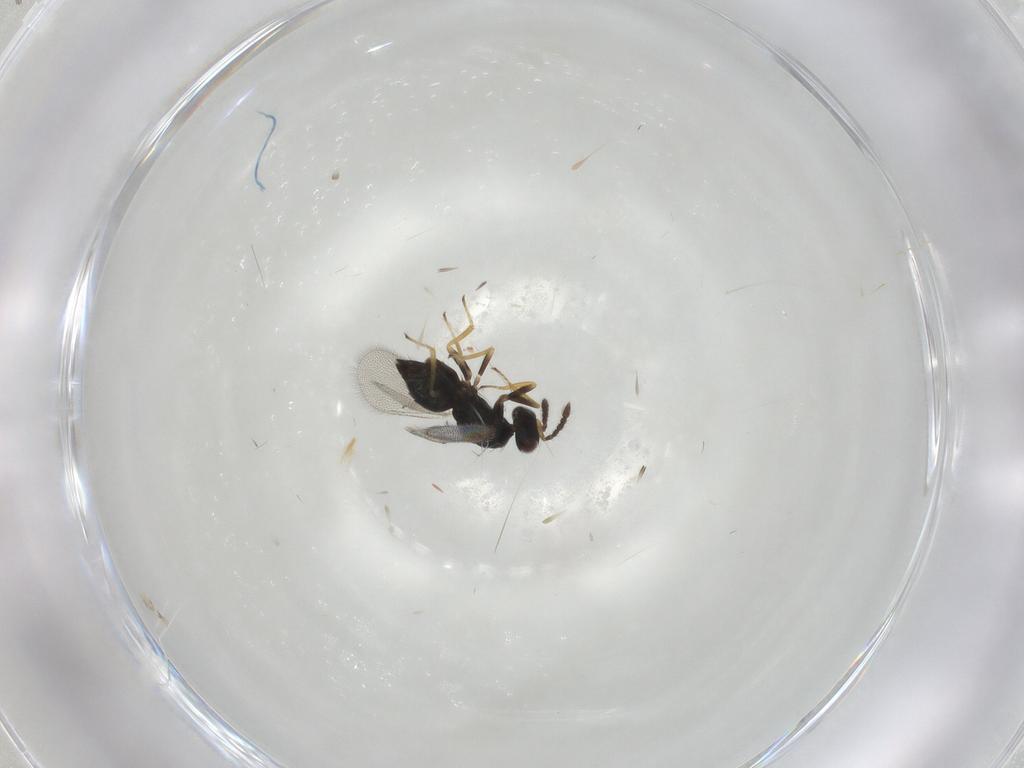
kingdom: Animalia
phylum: Arthropoda
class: Insecta
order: Hymenoptera
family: Eulophidae
